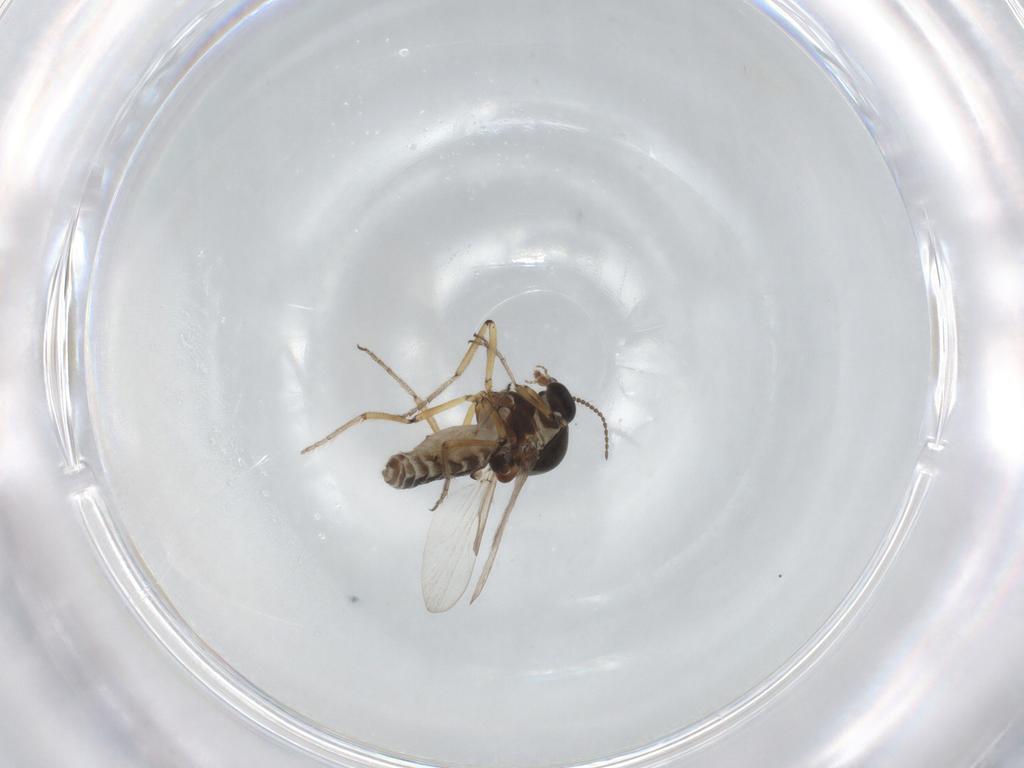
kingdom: Animalia
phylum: Arthropoda
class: Insecta
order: Diptera
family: Cecidomyiidae
